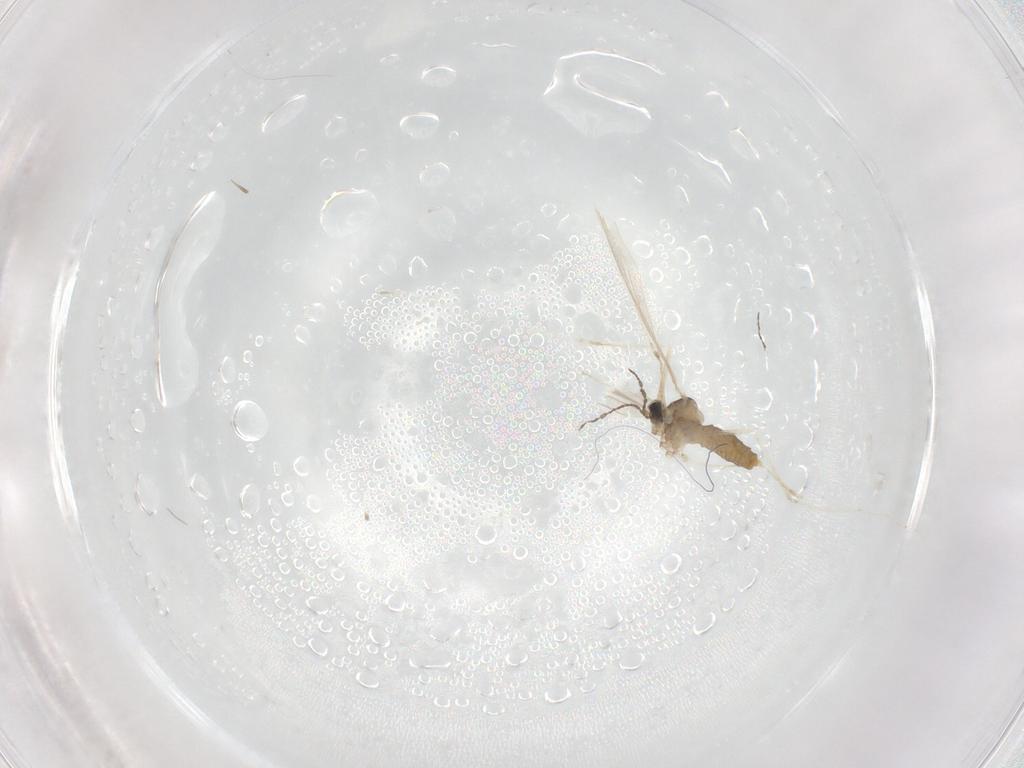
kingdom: Animalia
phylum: Arthropoda
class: Insecta
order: Diptera
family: Cecidomyiidae
